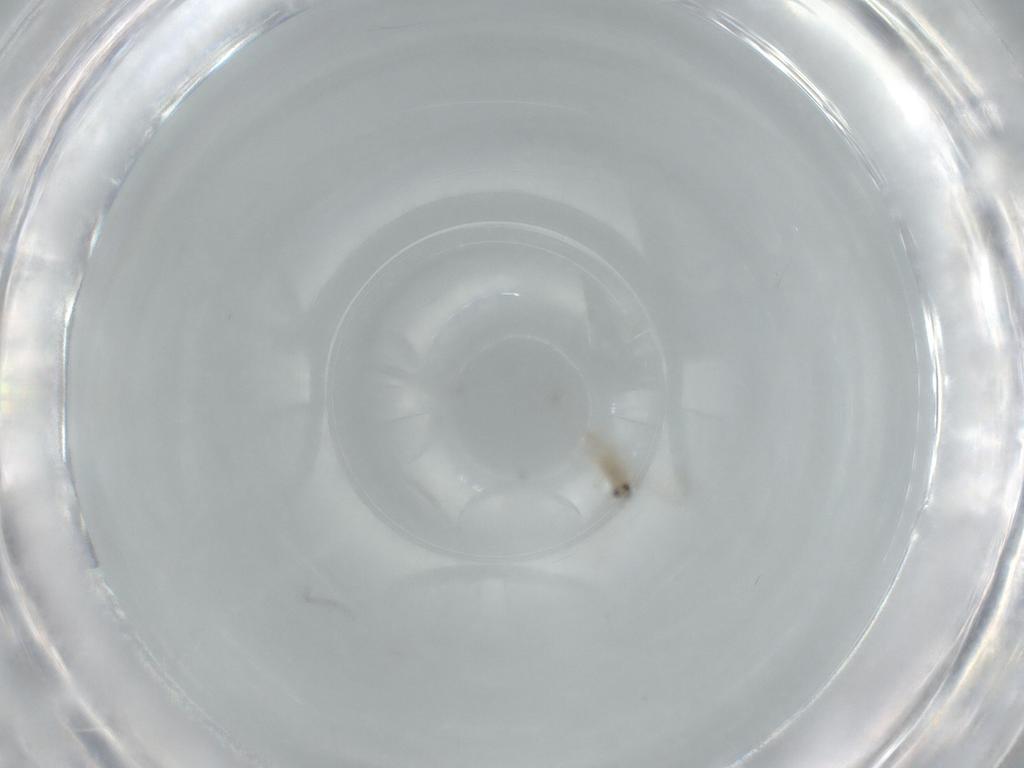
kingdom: Animalia
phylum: Arthropoda
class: Insecta
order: Diptera
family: Cecidomyiidae
